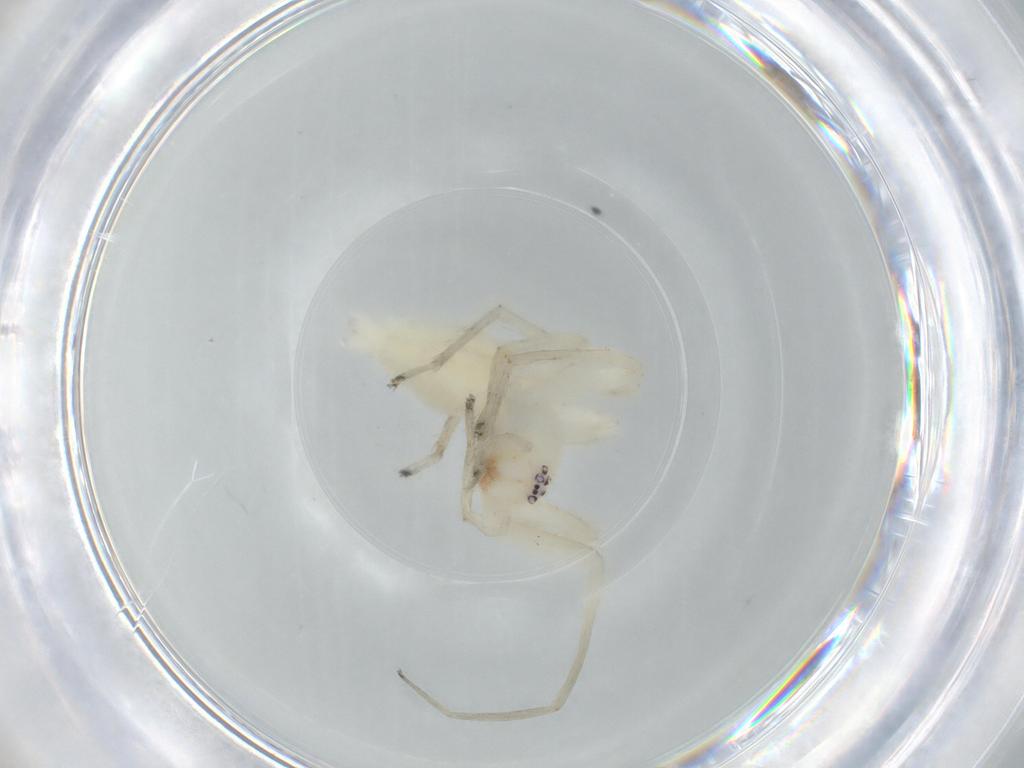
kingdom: Animalia
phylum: Arthropoda
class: Arachnida
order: Araneae
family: Anyphaenidae
